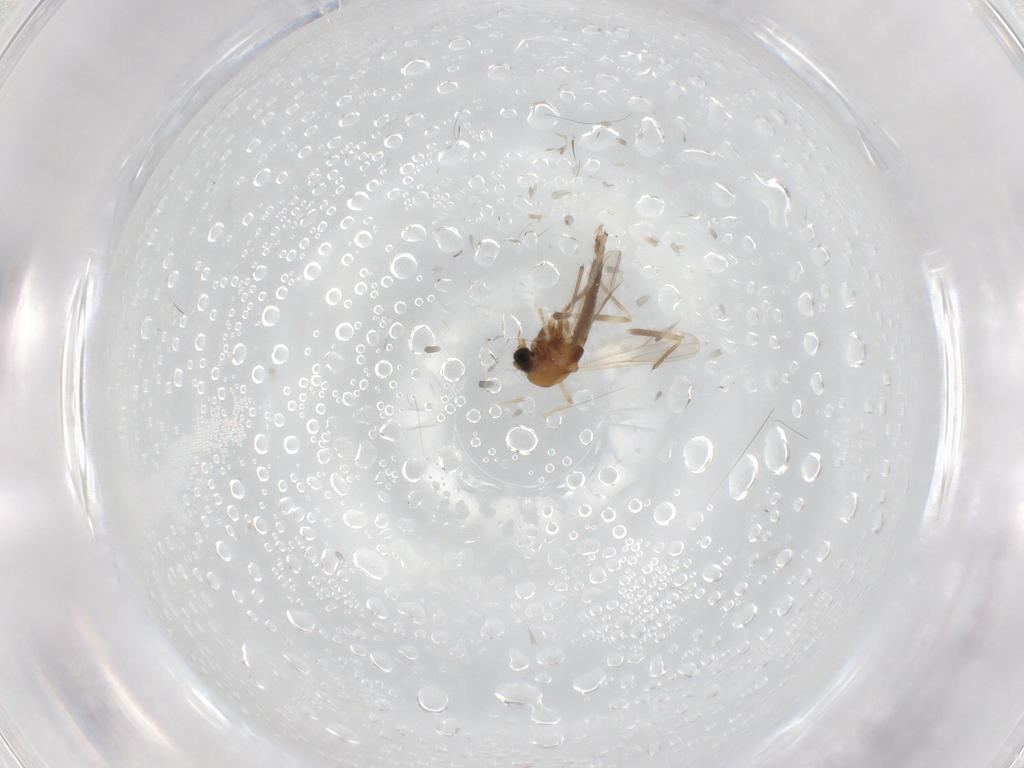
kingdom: Animalia
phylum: Arthropoda
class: Insecta
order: Diptera
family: Chironomidae
